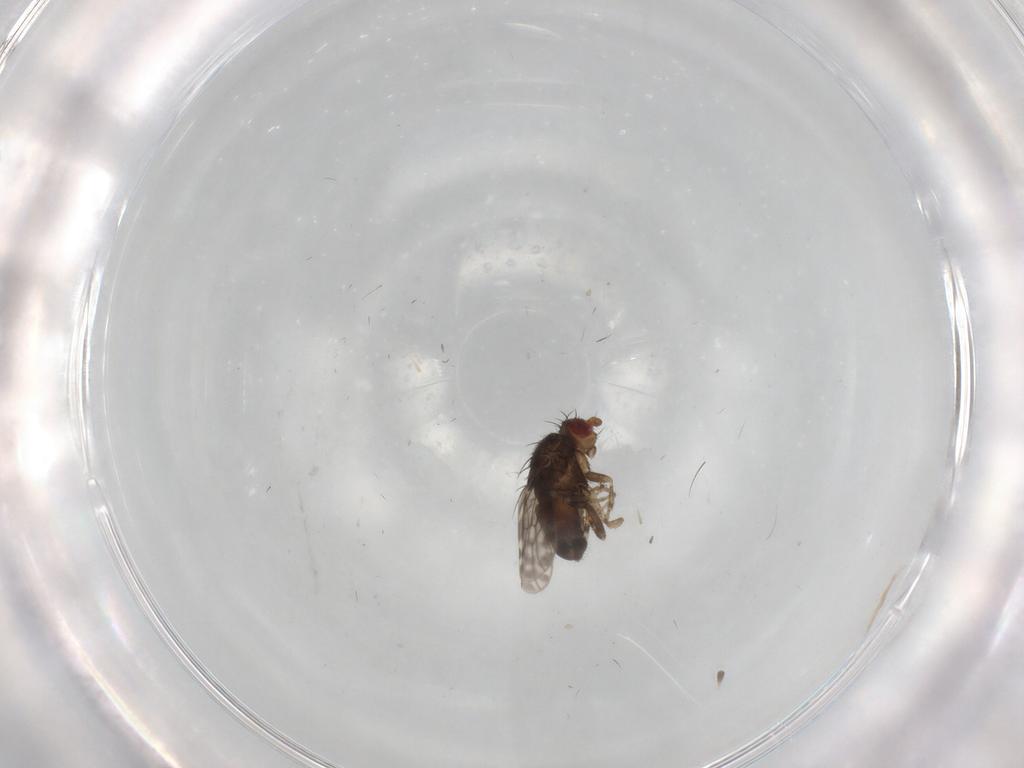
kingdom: Animalia
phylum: Arthropoda
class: Insecta
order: Diptera
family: Sphaeroceridae
